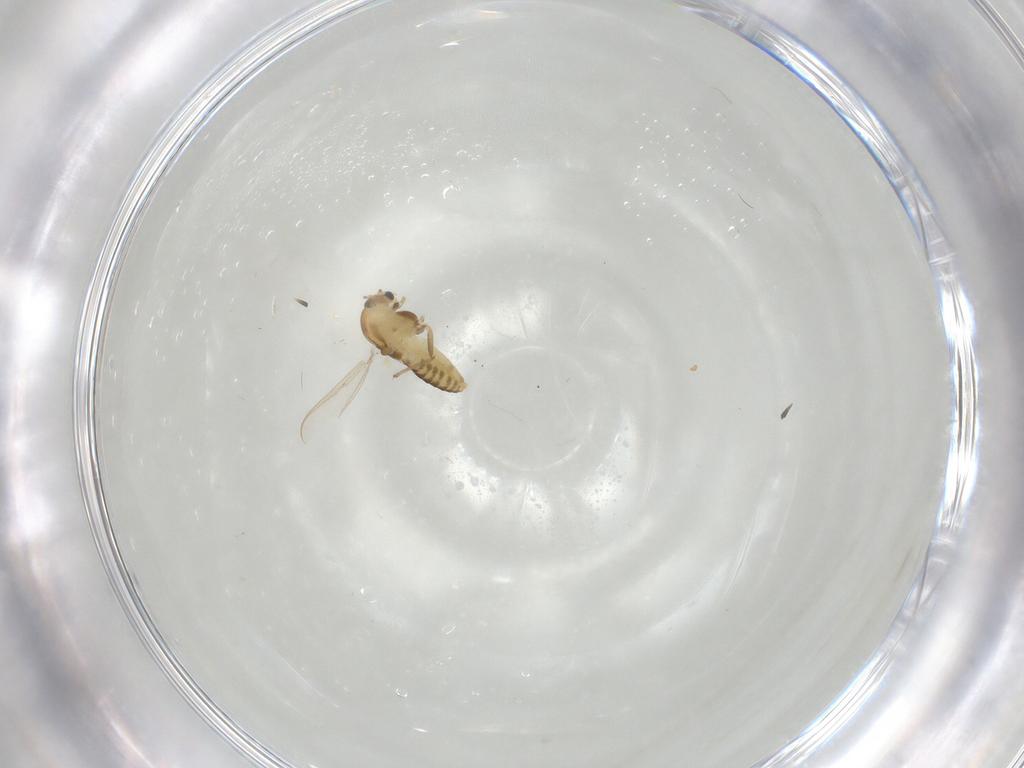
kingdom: Animalia
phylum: Arthropoda
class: Insecta
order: Diptera
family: Chironomidae
